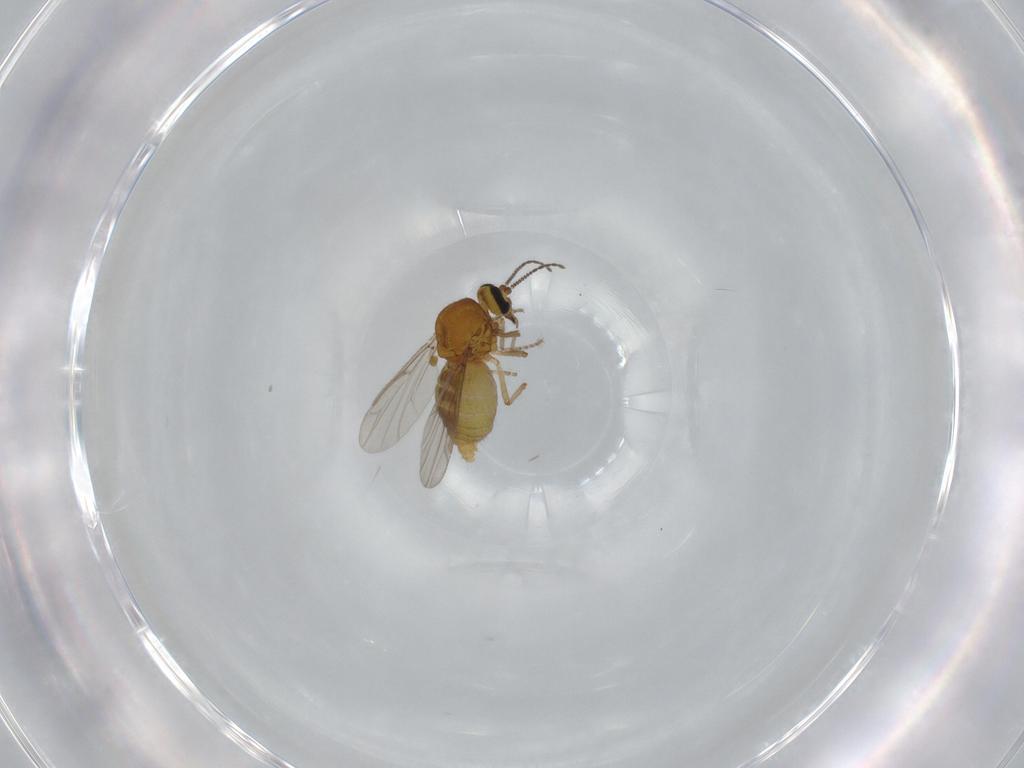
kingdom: Animalia
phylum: Arthropoda
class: Insecta
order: Diptera
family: Ceratopogonidae
